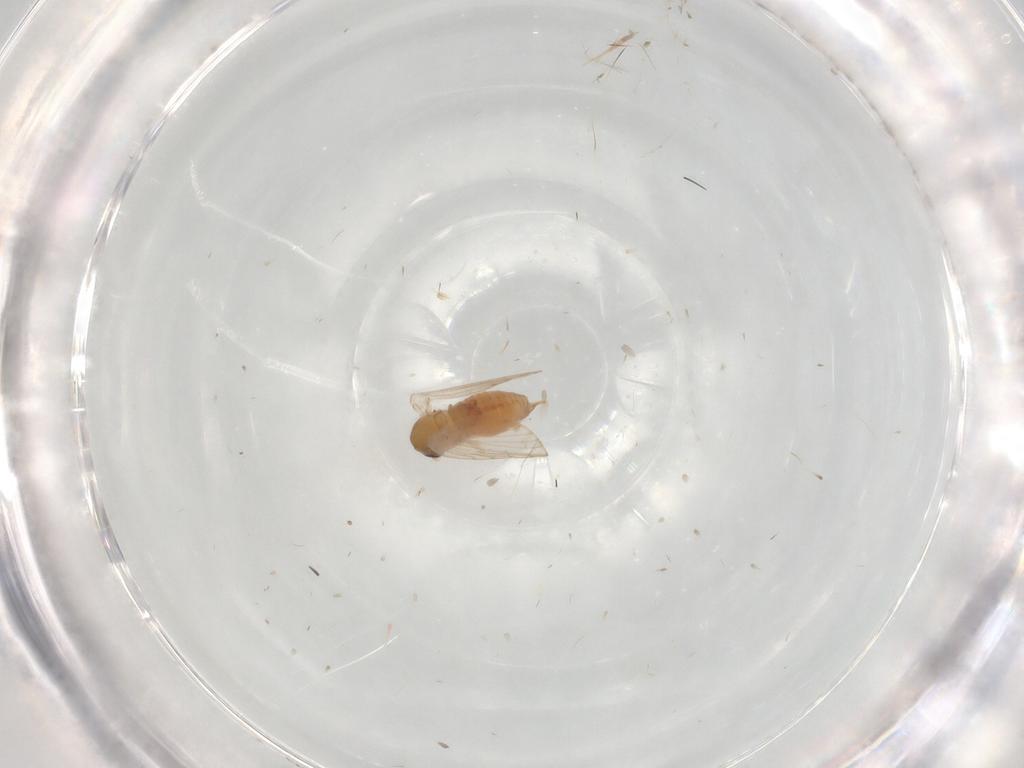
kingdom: Animalia
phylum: Arthropoda
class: Insecta
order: Diptera
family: Psychodidae
